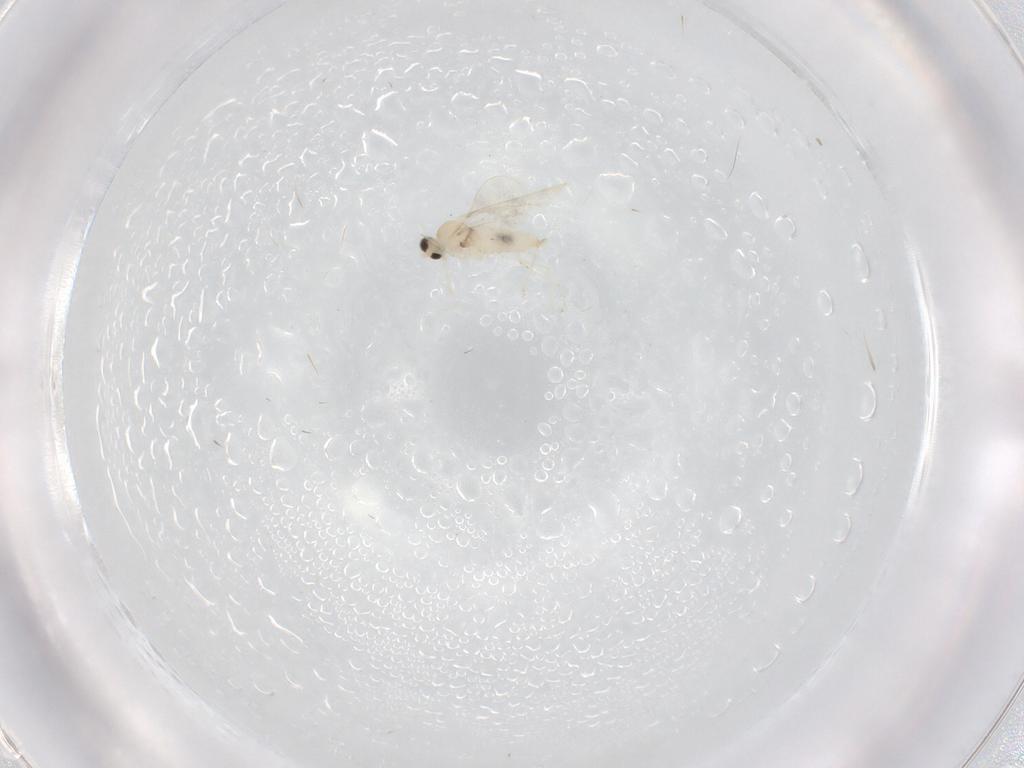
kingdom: Animalia
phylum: Arthropoda
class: Insecta
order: Diptera
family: Cecidomyiidae
